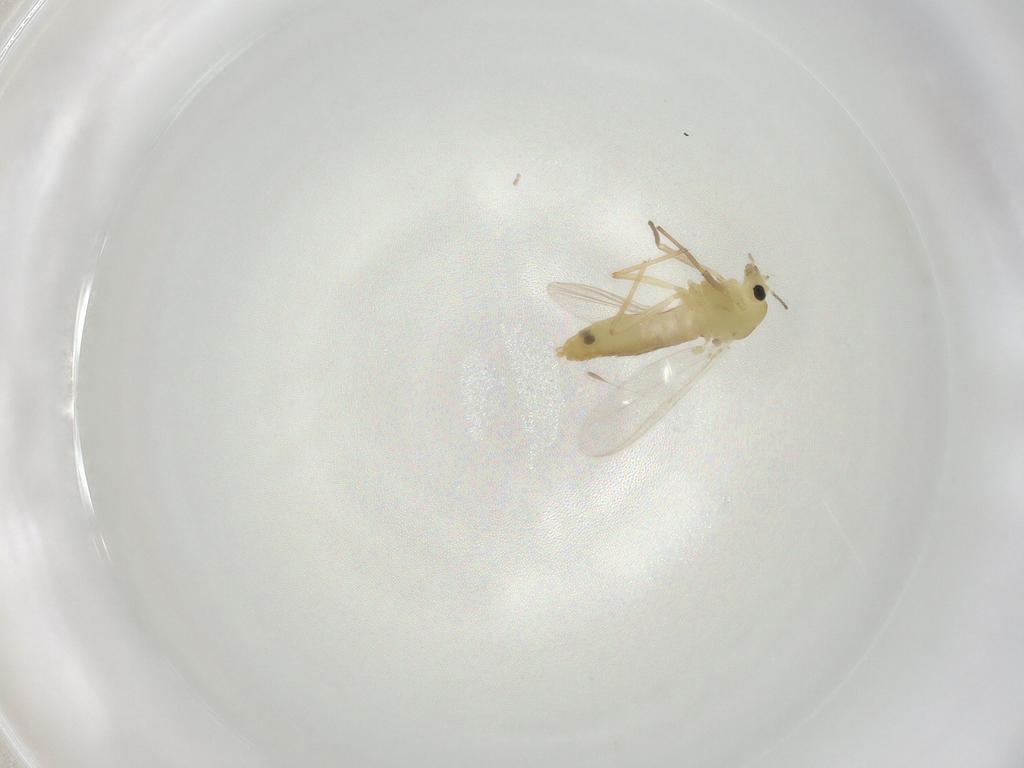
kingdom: Animalia
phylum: Arthropoda
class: Insecta
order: Diptera
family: Chironomidae
